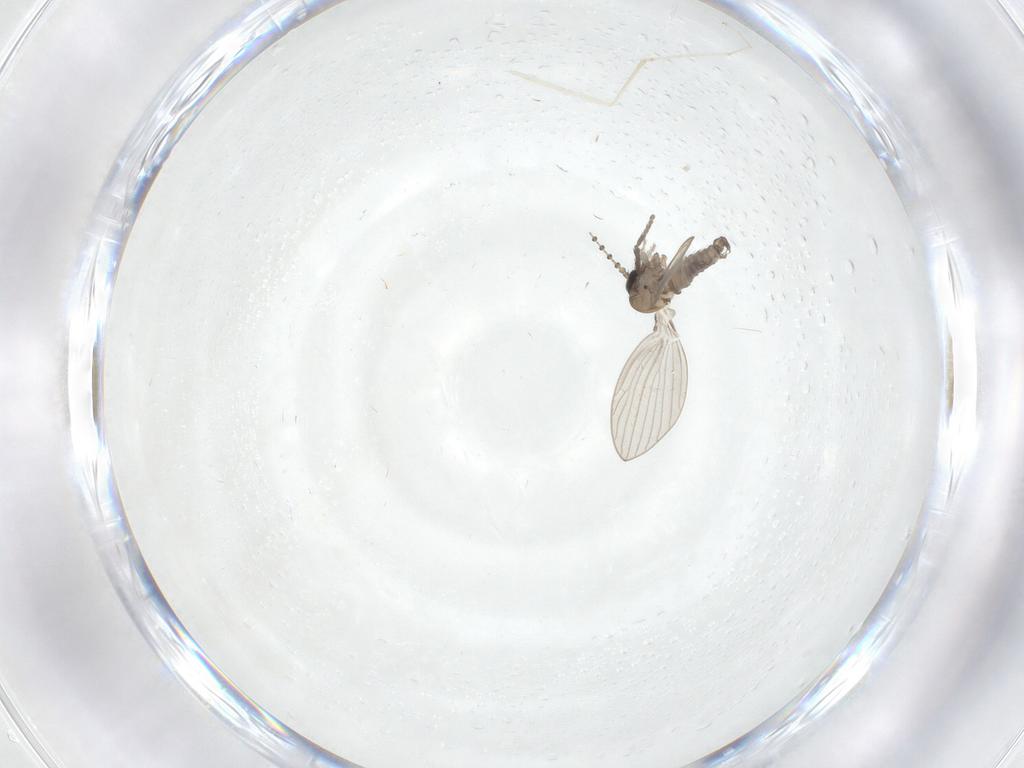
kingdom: Animalia
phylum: Arthropoda
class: Insecta
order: Diptera
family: Psychodidae
